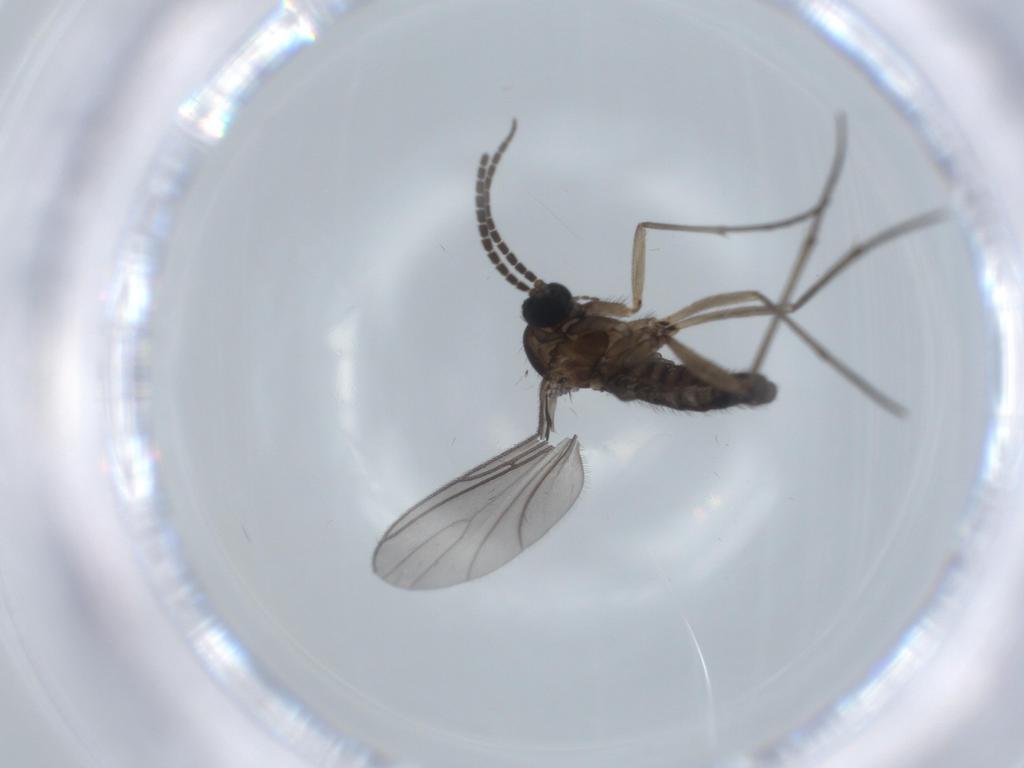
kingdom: Animalia
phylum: Arthropoda
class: Insecta
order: Diptera
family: Sciaridae
